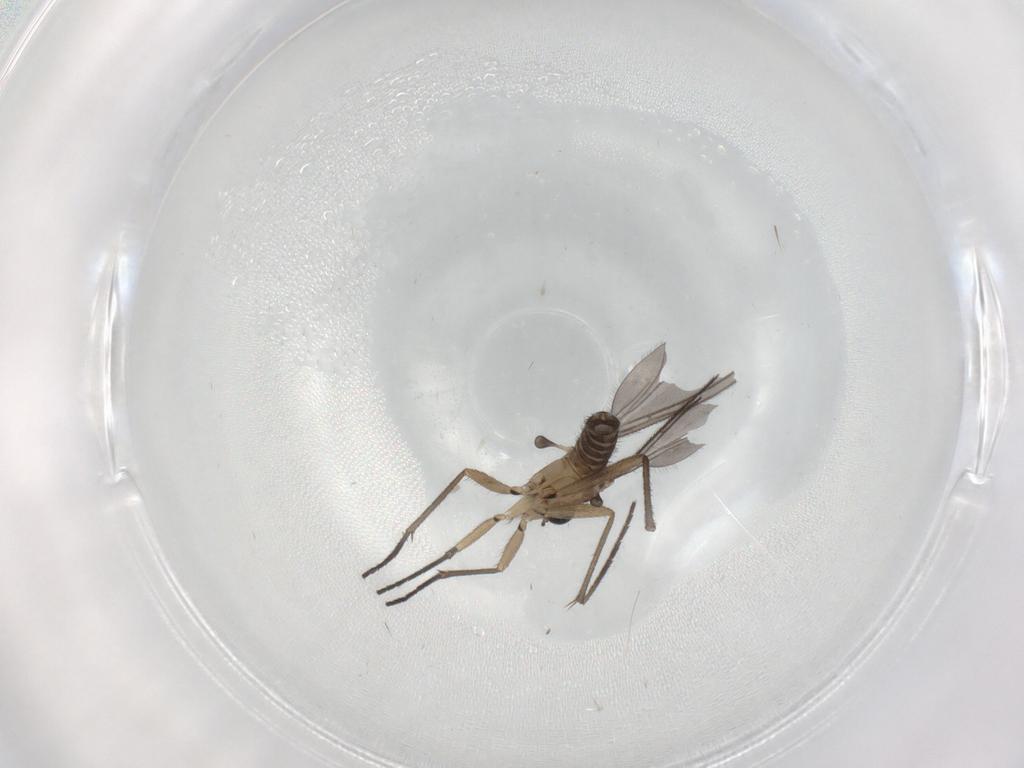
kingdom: Animalia
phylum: Arthropoda
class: Insecta
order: Diptera
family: Sciaridae
